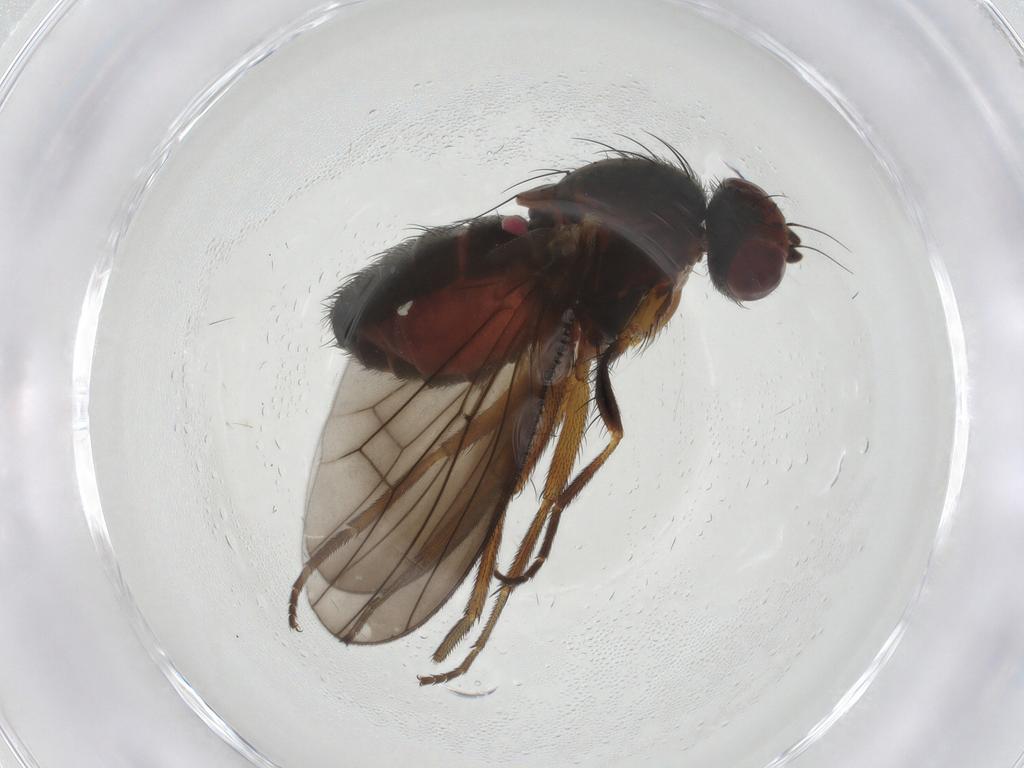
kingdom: Animalia
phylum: Arthropoda
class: Insecta
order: Diptera
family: Heleomyzidae
